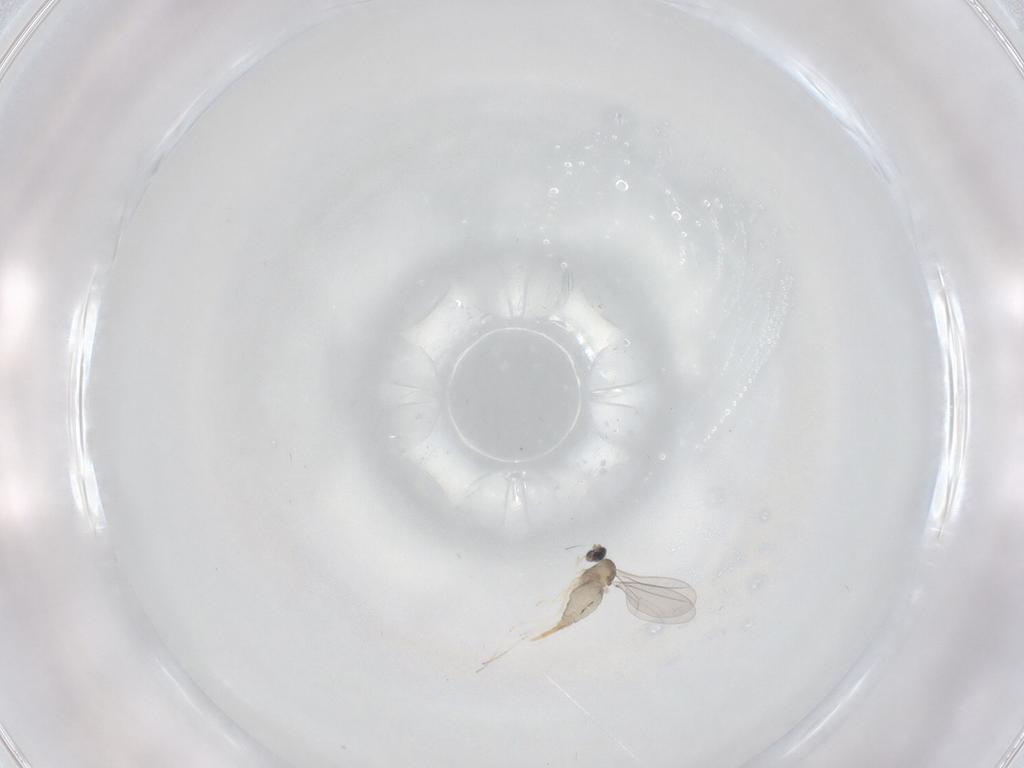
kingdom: Animalia
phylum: Arthropoda
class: Insecta
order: Diptera
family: Cecidomyiidae
